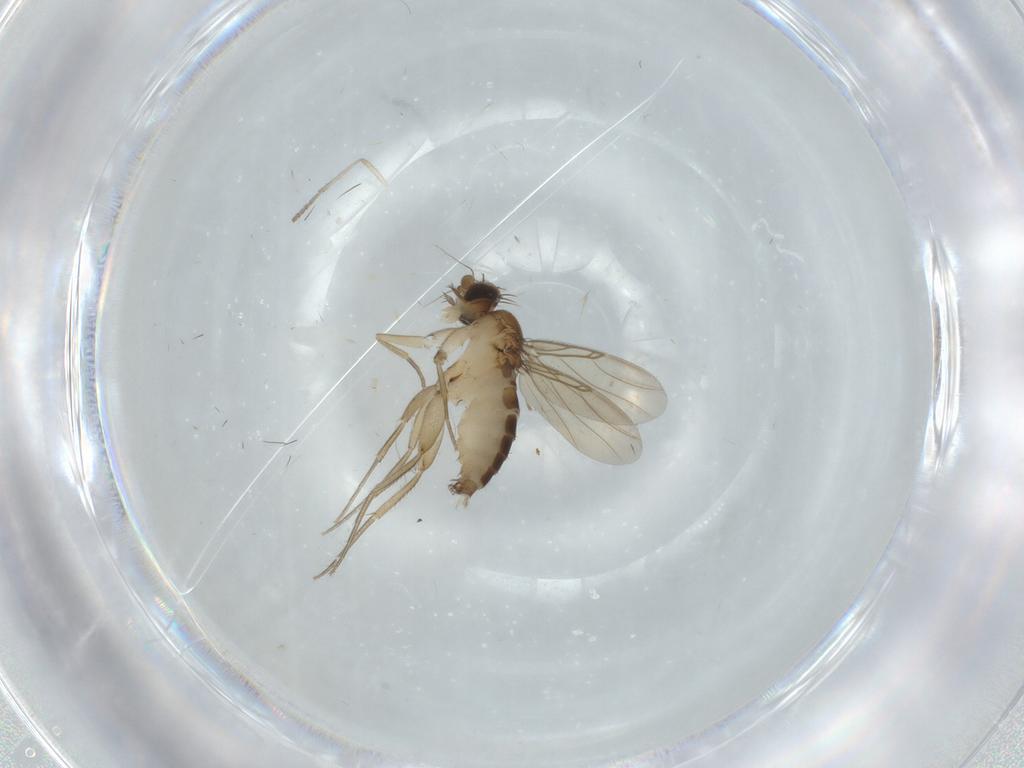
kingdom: Animalia
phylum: Arthropoda
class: Insecta
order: Diptera
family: Phoridae
